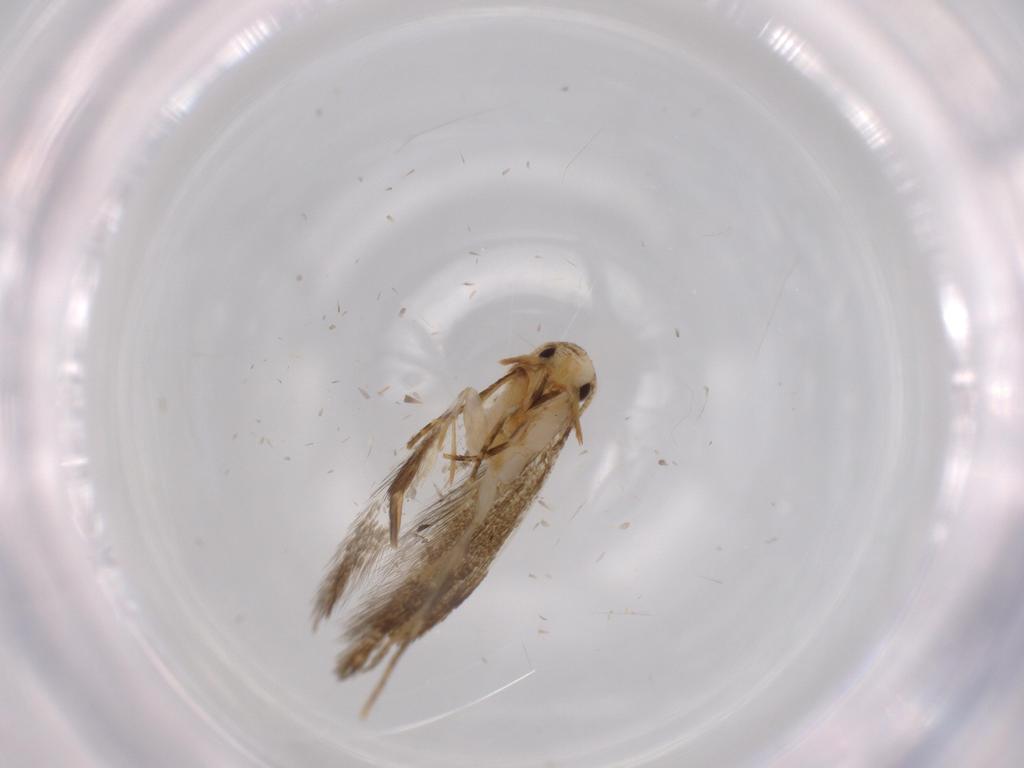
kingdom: Animalia
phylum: Arthropoda
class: Insecta
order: Lepidoptera
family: Tineidae
